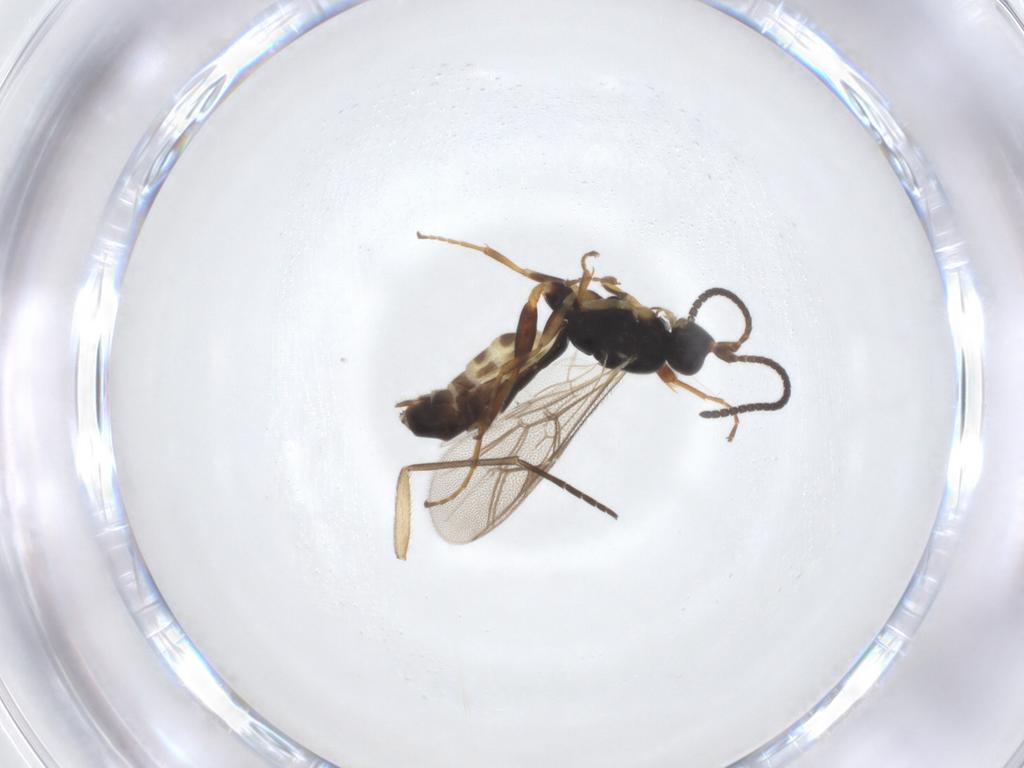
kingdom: Animalia
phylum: Arthropoda
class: Insecta
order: Hymenoptera
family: Ichneumonidae
